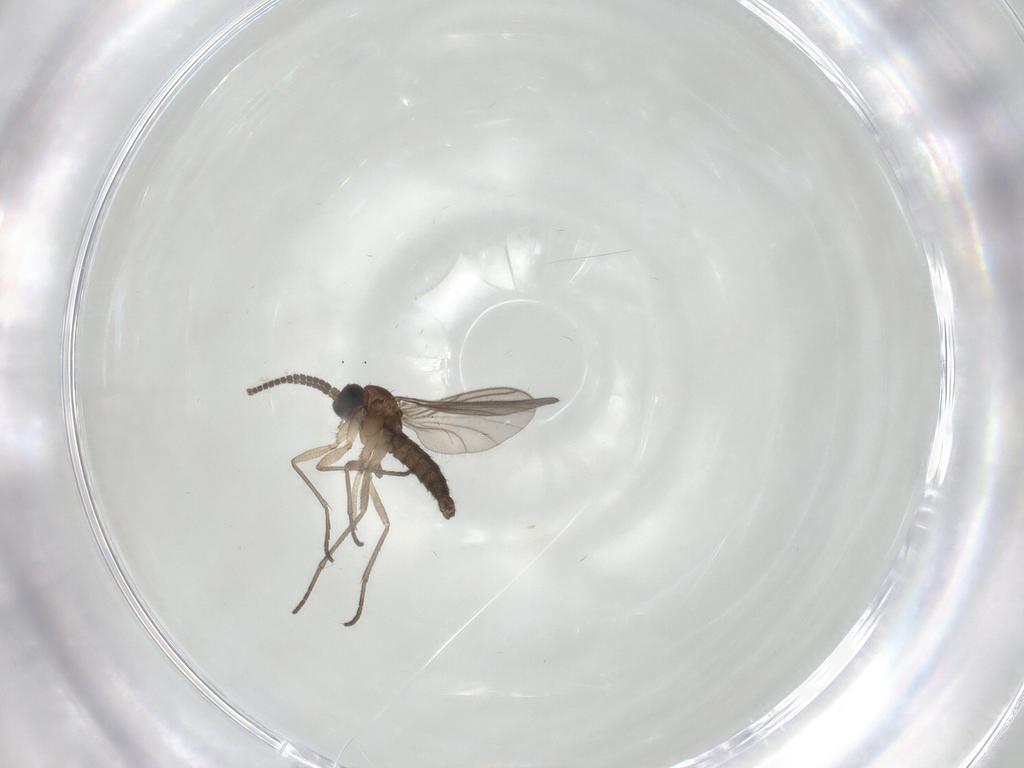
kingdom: Animalia
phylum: Arthropoda
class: Insecta
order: Diptera
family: Sciaridae
